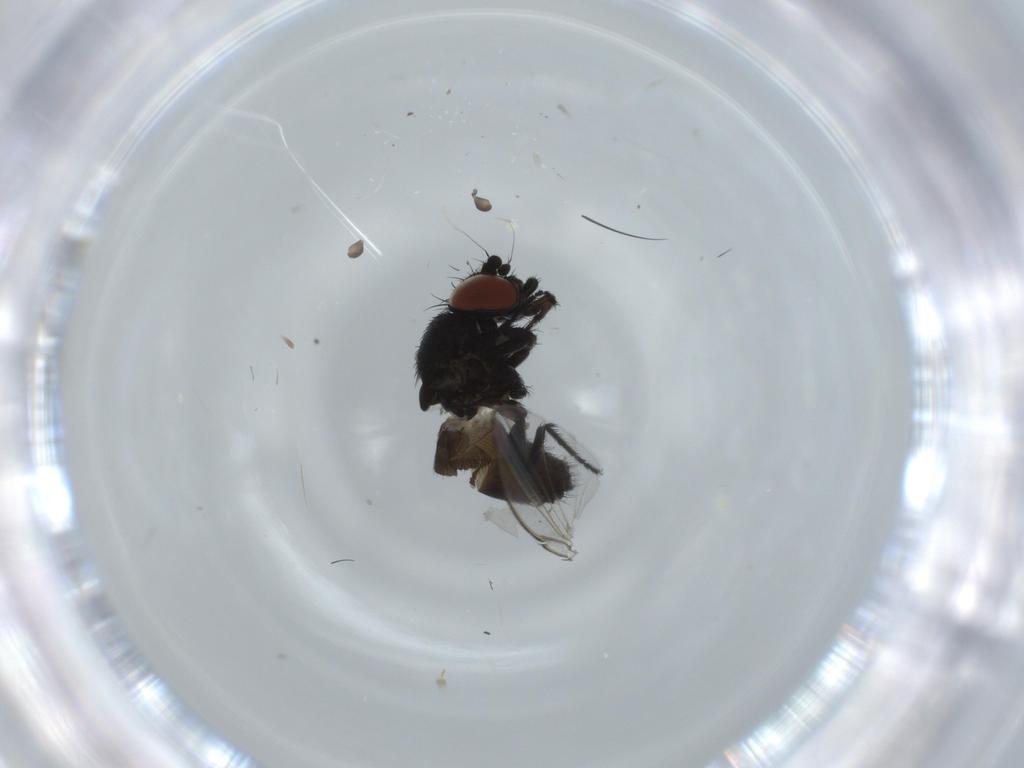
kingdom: Animalia
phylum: Arthropoda
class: Insecta
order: Diptera
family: Milichiidae
